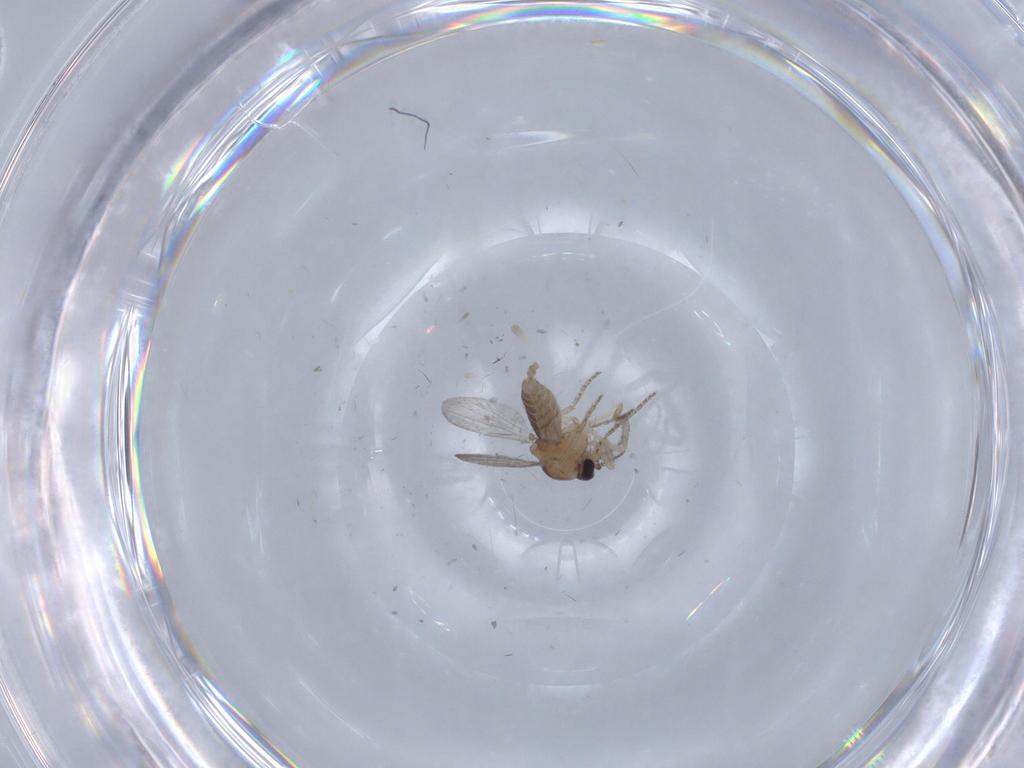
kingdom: Animalia
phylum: Arthropoda
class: Insecta
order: Diptera
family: Ceratopogonidae
